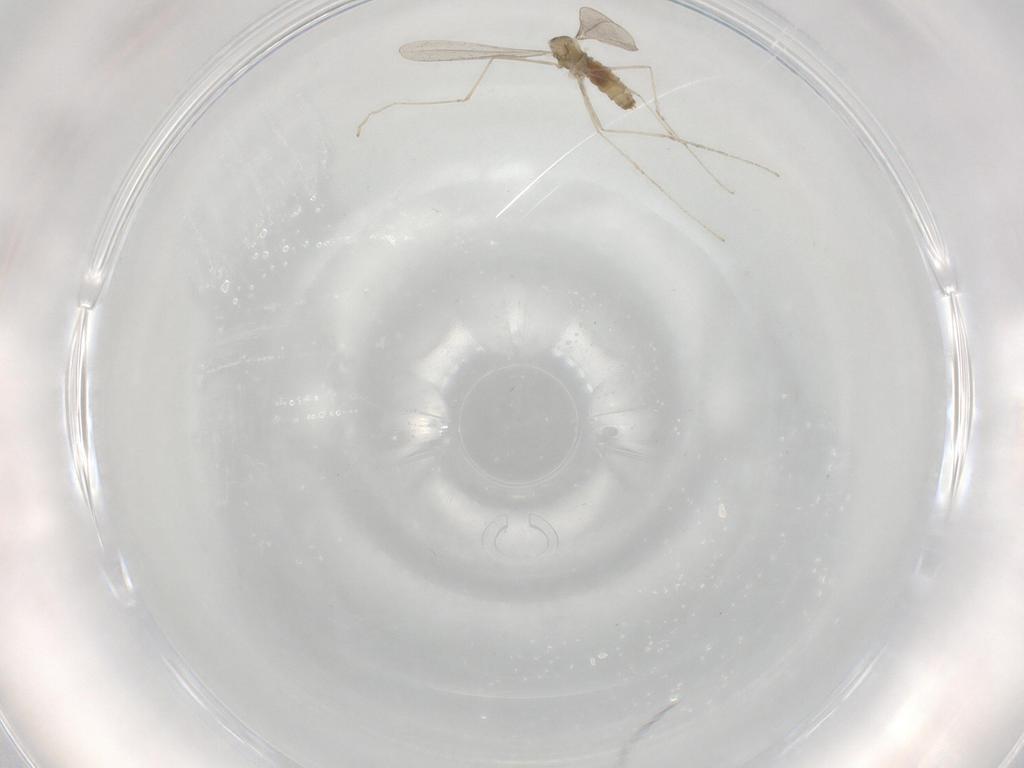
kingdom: Animalia
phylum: Arthropoda
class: Insecta
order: Diptera
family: Cecidomyiidae
